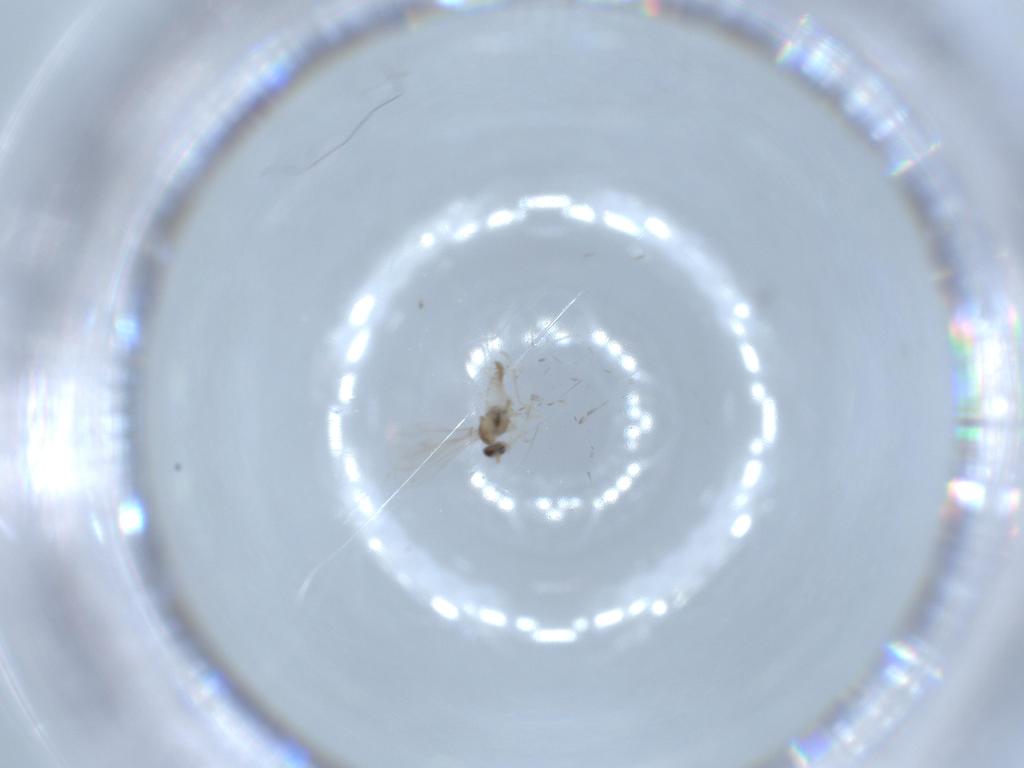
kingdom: Animalia
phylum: Arthropoda
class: Insecta
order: Diptera
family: Cecidomyiidae
